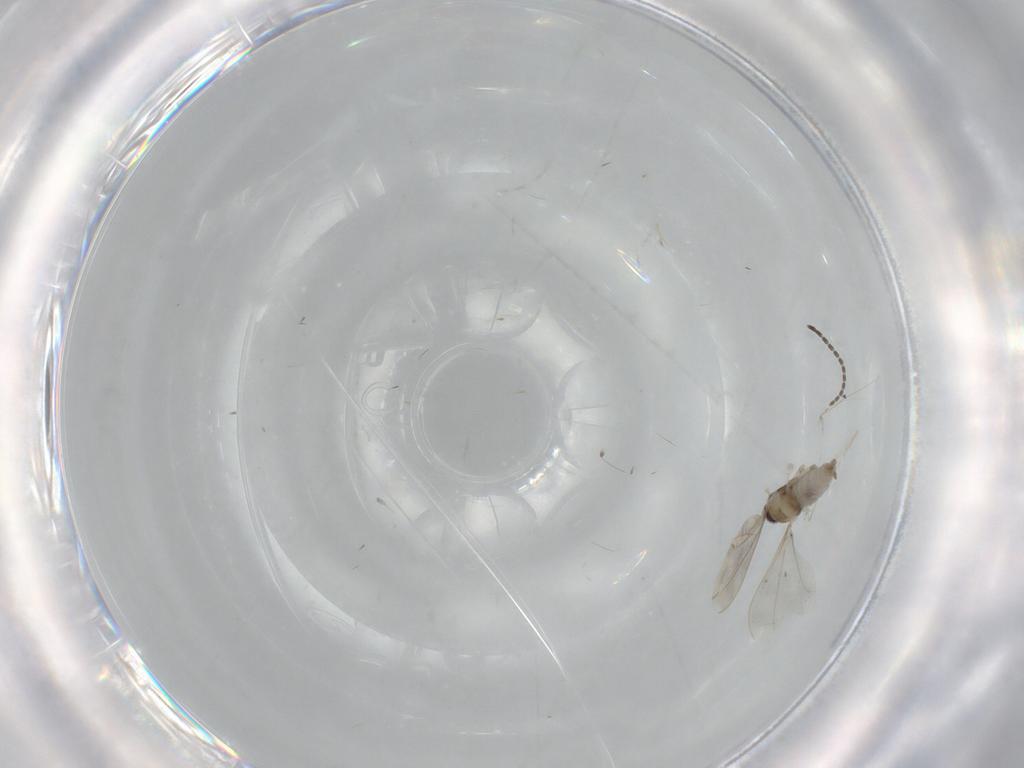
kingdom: Animalia
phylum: Arthropoda
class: Insecta
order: Diptera
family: Cecidomyiidae
